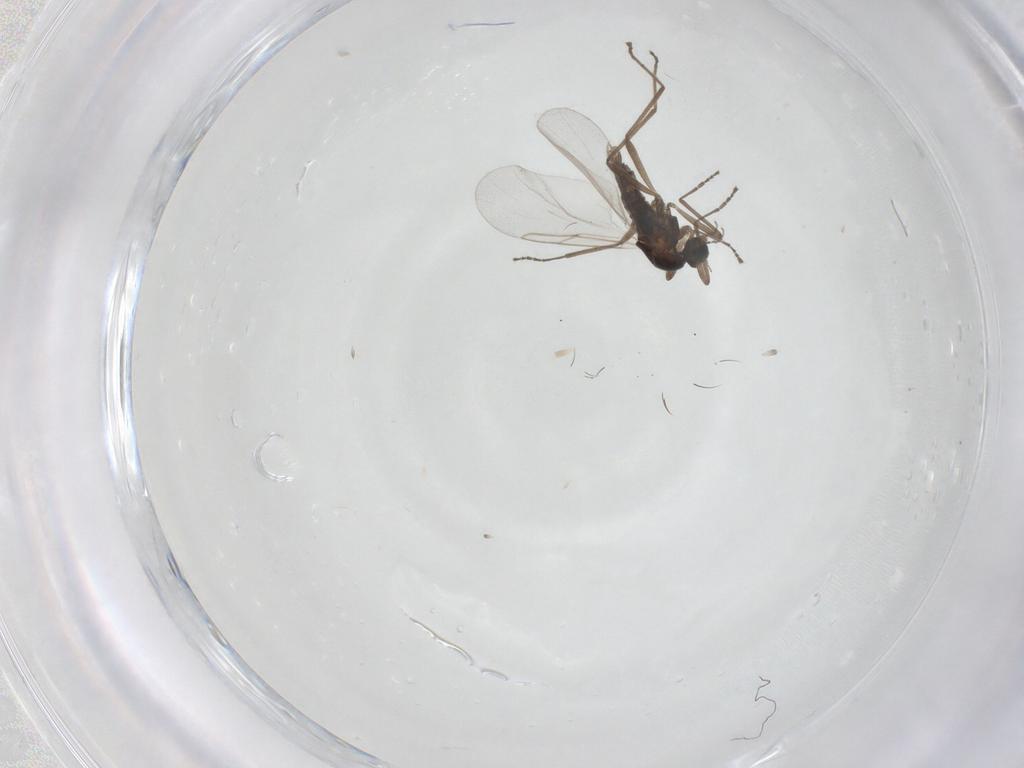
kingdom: Animalia
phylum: Arthropoda
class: Insecta
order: Diptera
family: Cecidomyiidae
